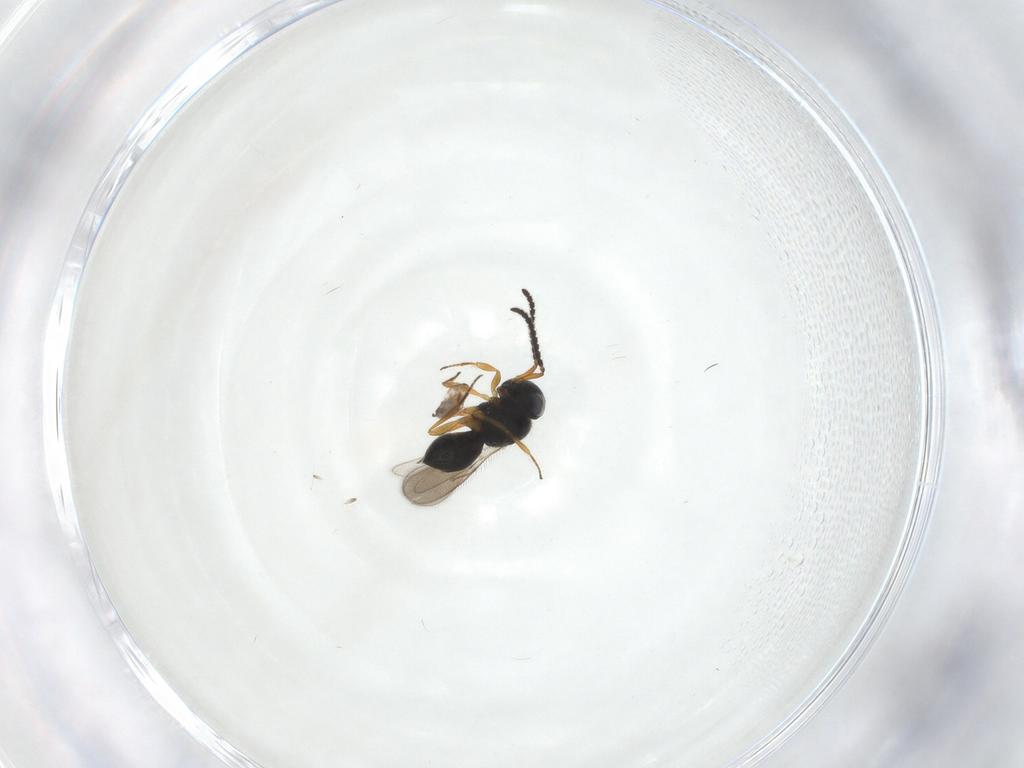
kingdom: Animalia
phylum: Arthropoda
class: Insecta
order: Hymenoptera
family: Scelionidae
